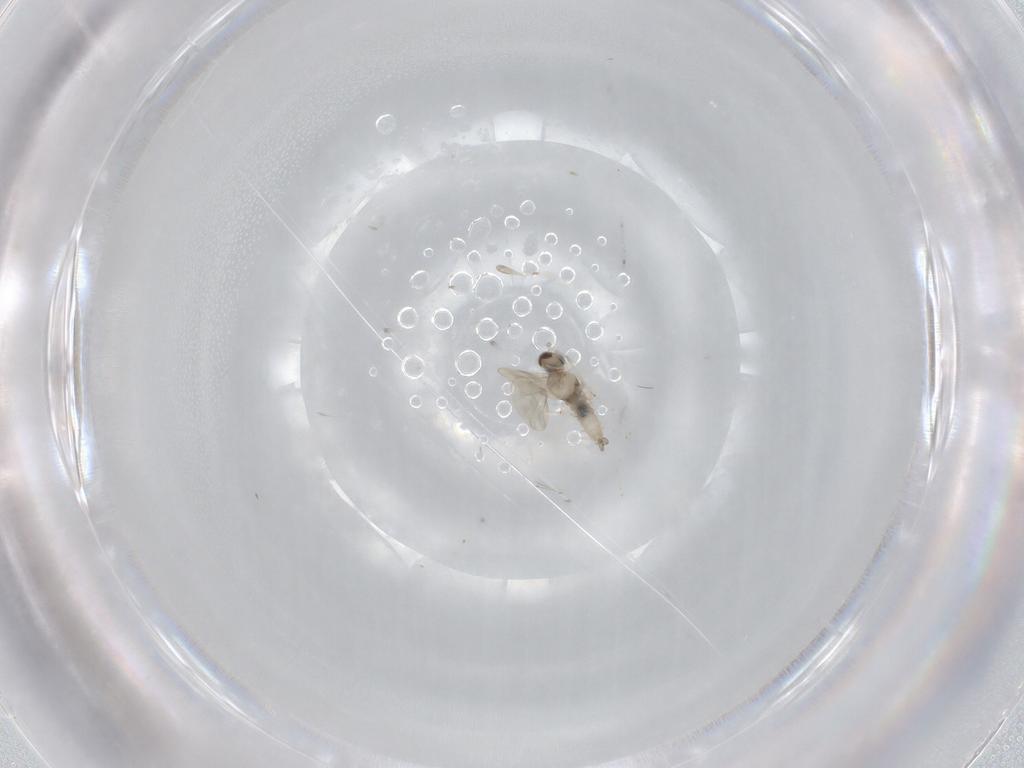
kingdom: Animalia
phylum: Arthropoda
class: Insecta
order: Diptera
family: Cecidomyiidae
